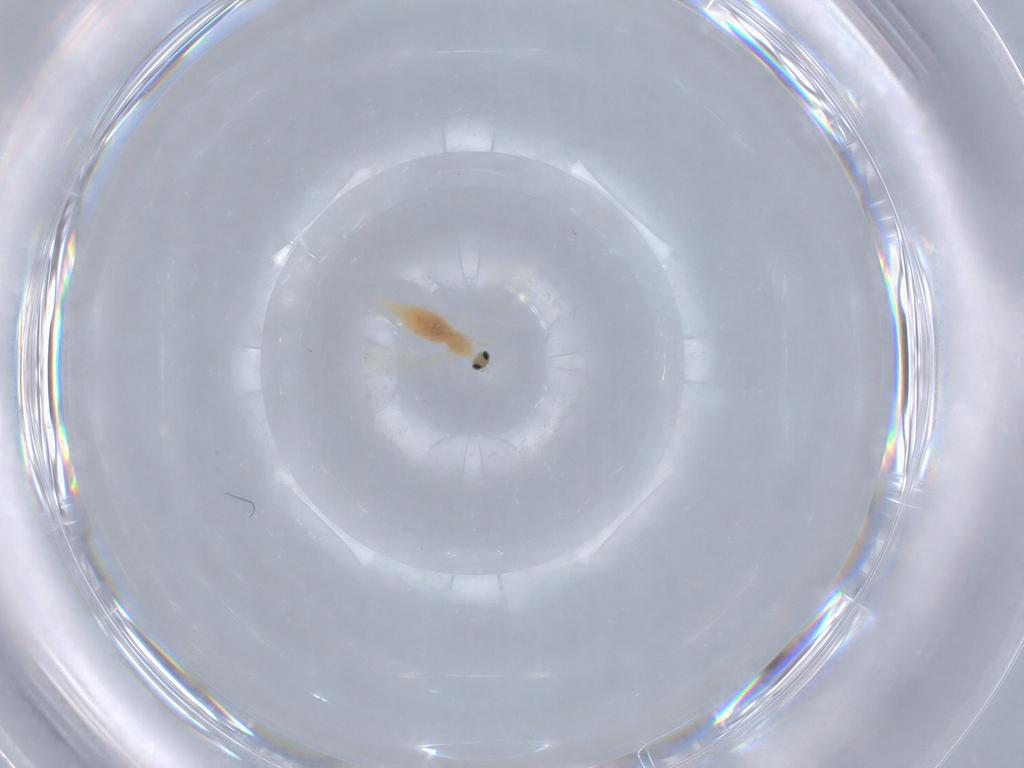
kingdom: Animalia
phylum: Arthropoda
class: Insecta
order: Diptera
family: Cecidomyiidae
